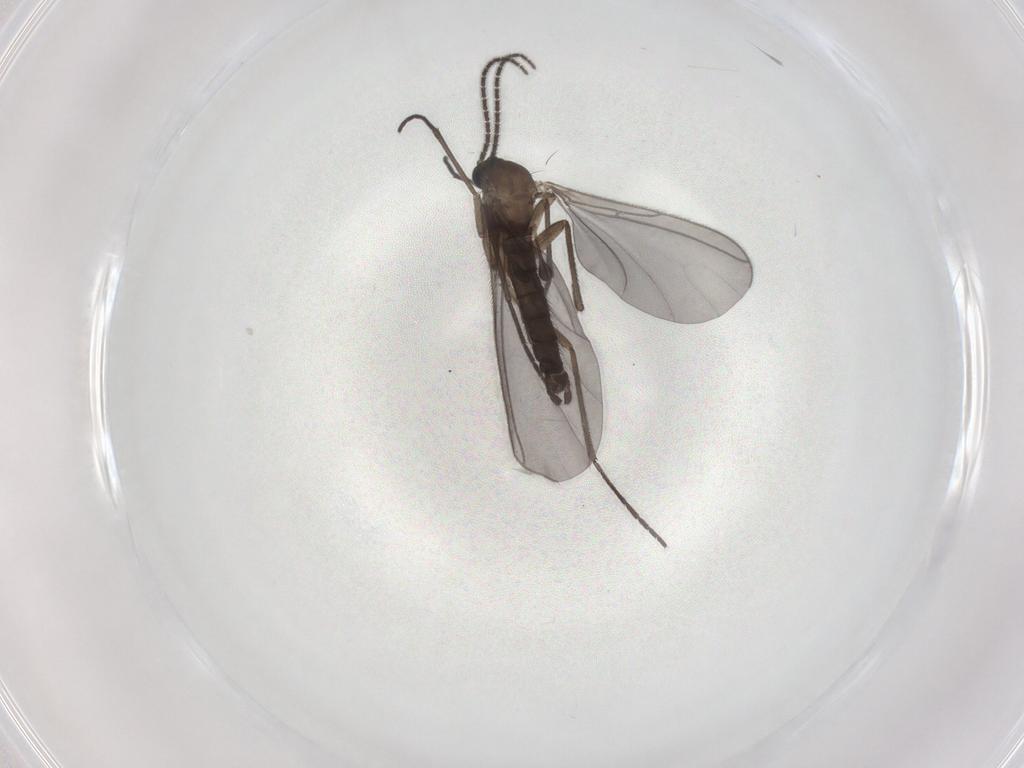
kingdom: Animalia
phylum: Arthropoda
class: Insecta
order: Diptera
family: Sciaridae
